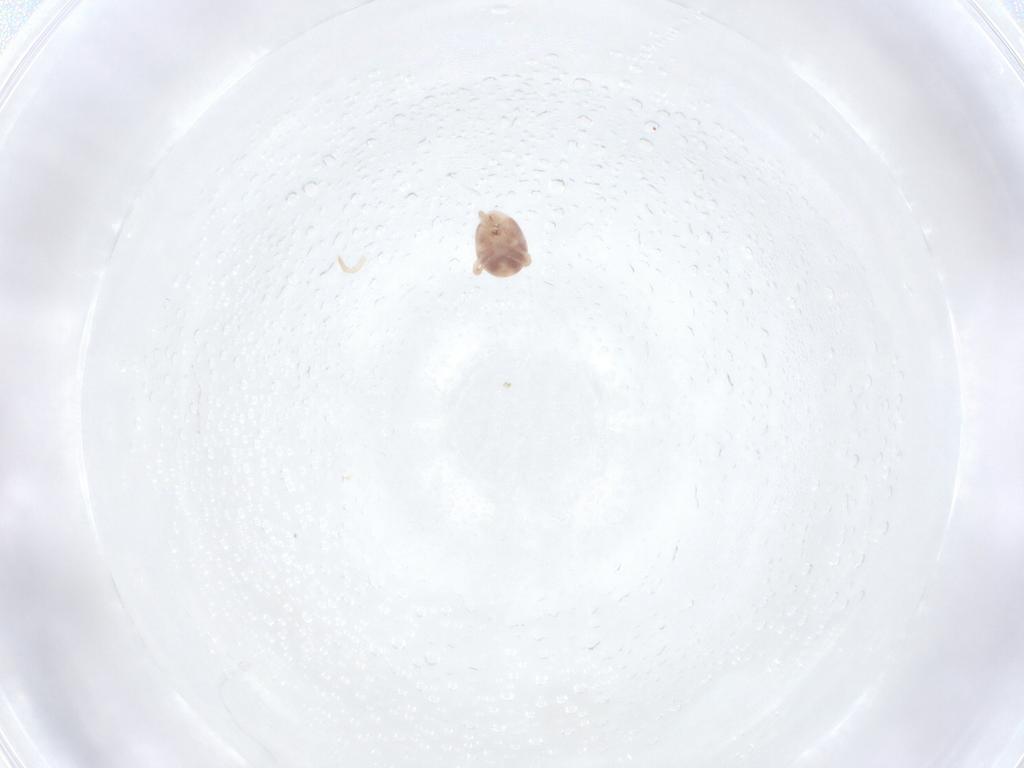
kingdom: Animalia
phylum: Arthropoda
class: Arachnida
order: Mesostigmata
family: Laelapidae
